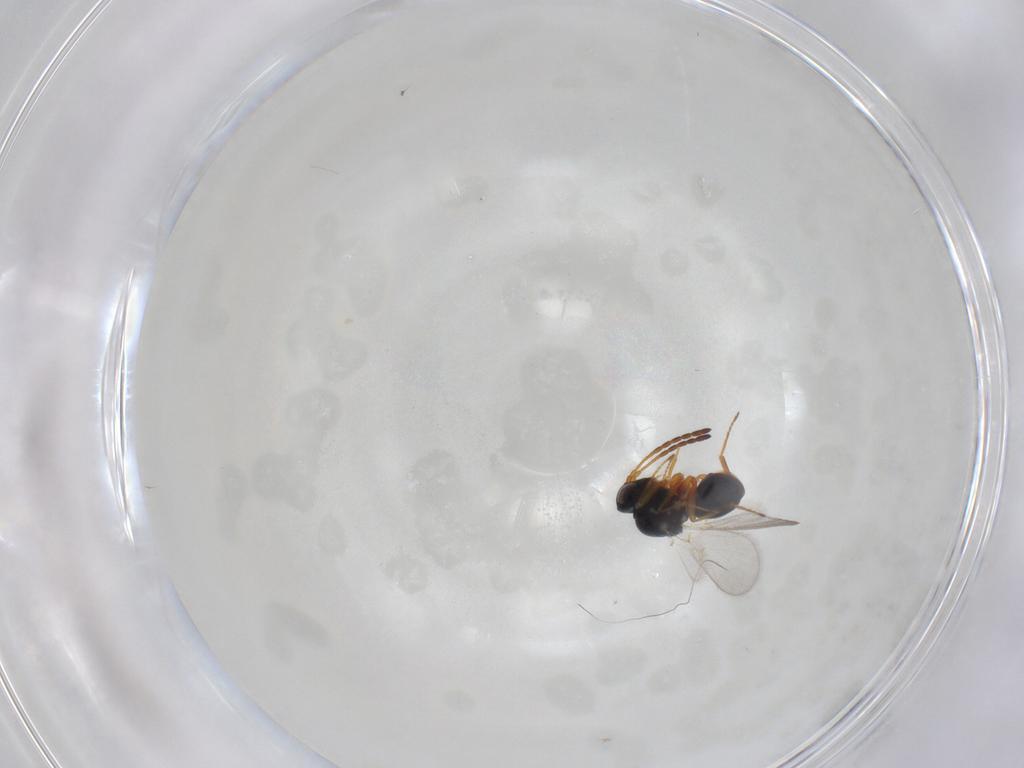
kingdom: Animalia
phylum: Arthropoda
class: Insecta
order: Hymenoptera
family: Figitidae
